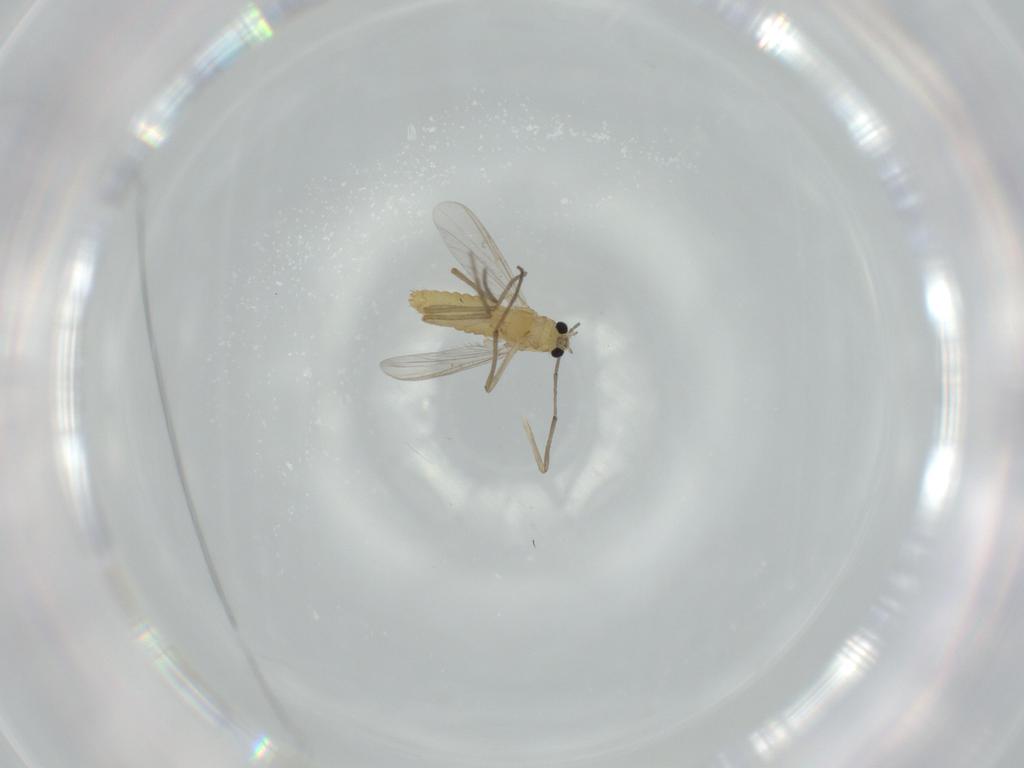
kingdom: Animalia
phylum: Arthropoda
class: Insecta
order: Diptera
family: Chironomidae
